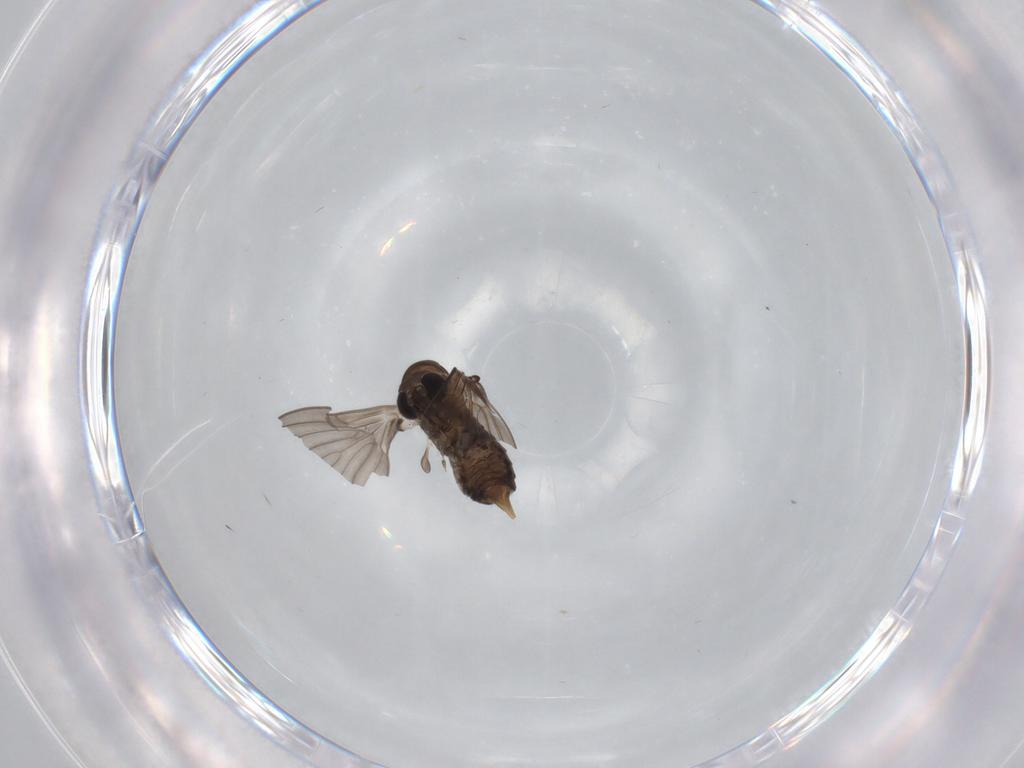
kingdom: Animalia
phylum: Arthropoda
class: Insecta
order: Diptera
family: Psychodidae
